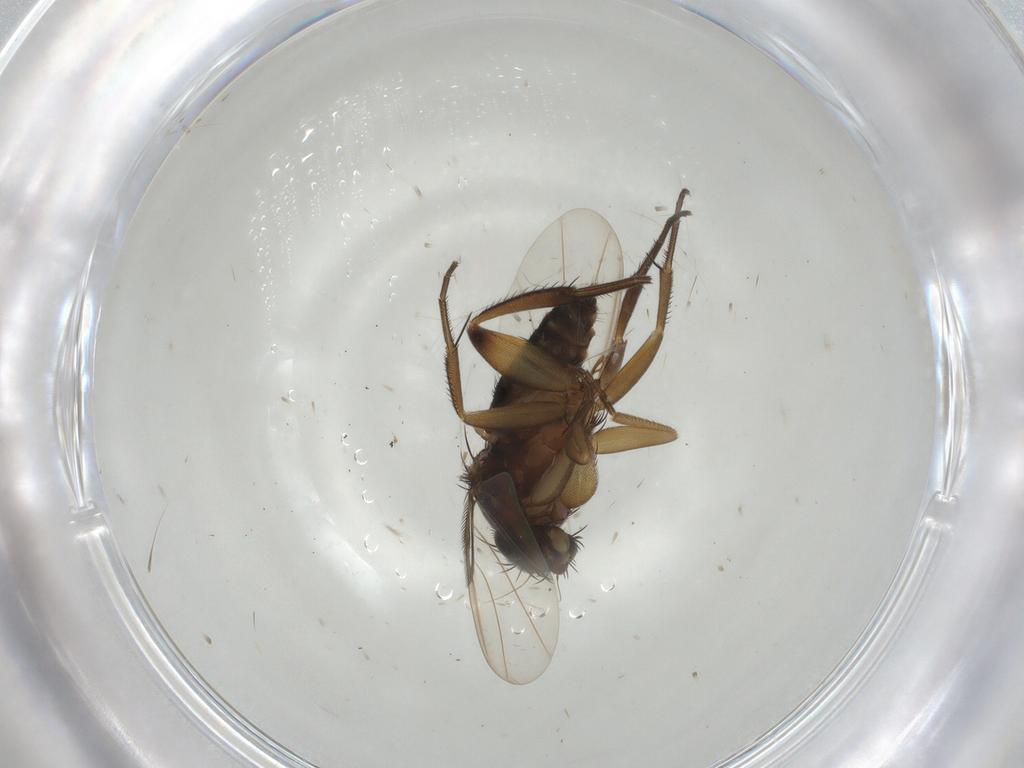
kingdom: Animalia
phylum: Arthropoda
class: Insecta
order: Diptera
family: Phoridae
